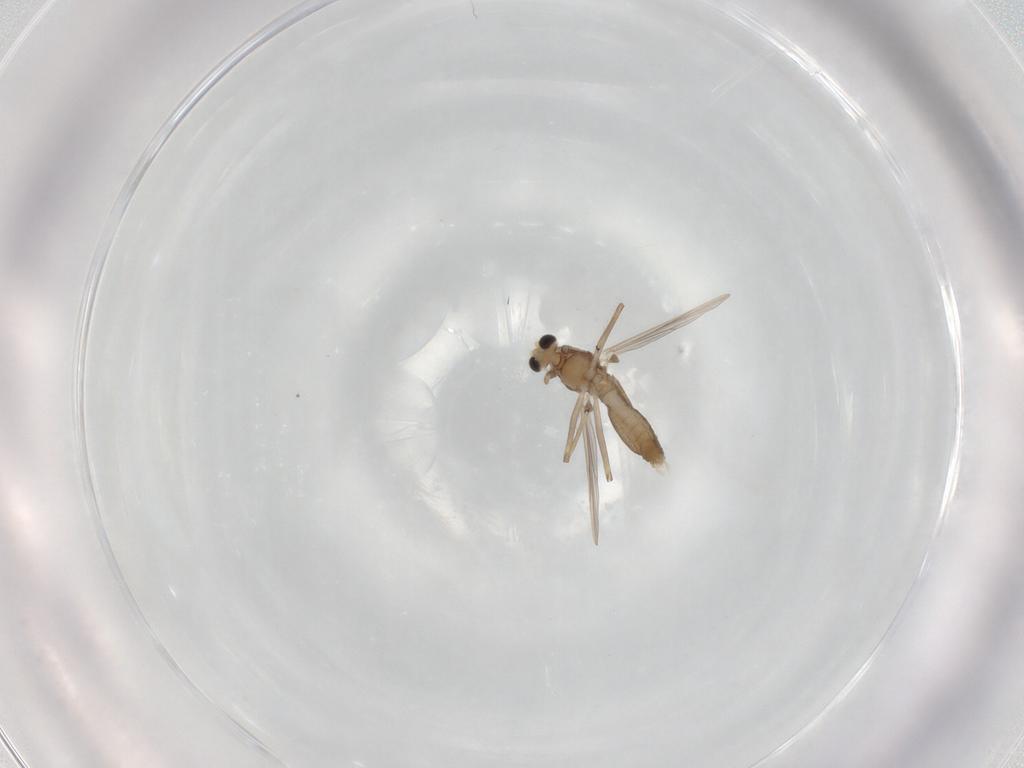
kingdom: Animalia
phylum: Arthropoda
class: Insecta
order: Diptera
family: Chironomidae
